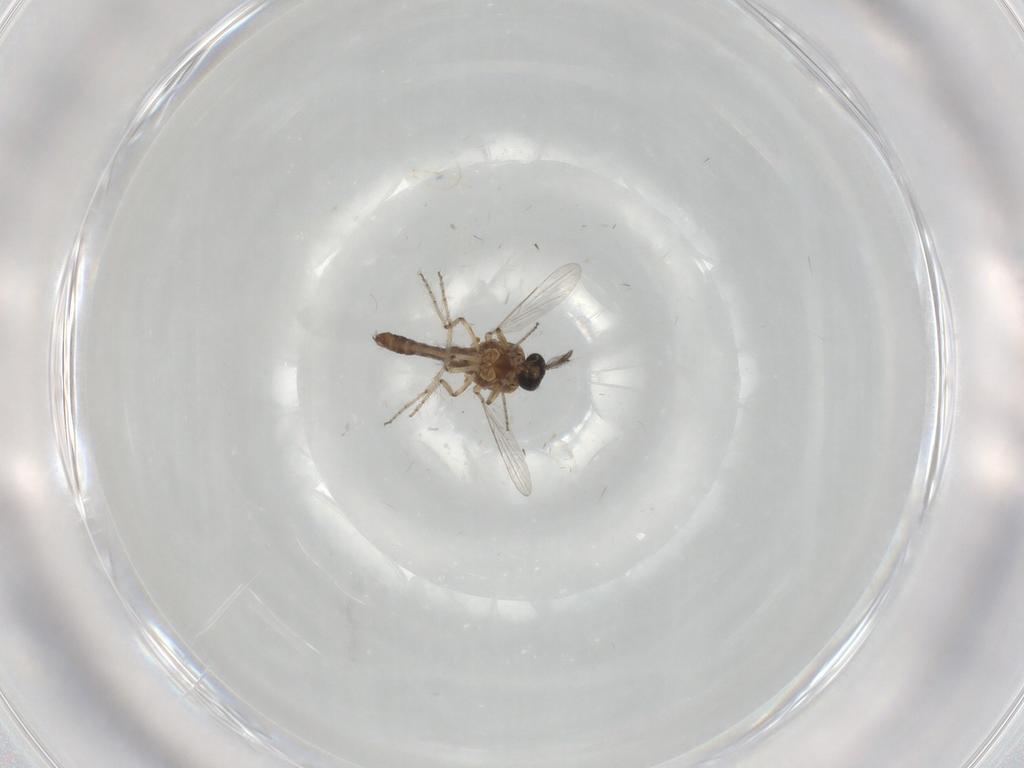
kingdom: Animalia
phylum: Arthropoda
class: Insecta
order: Diptera
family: Ceratopogonidae
